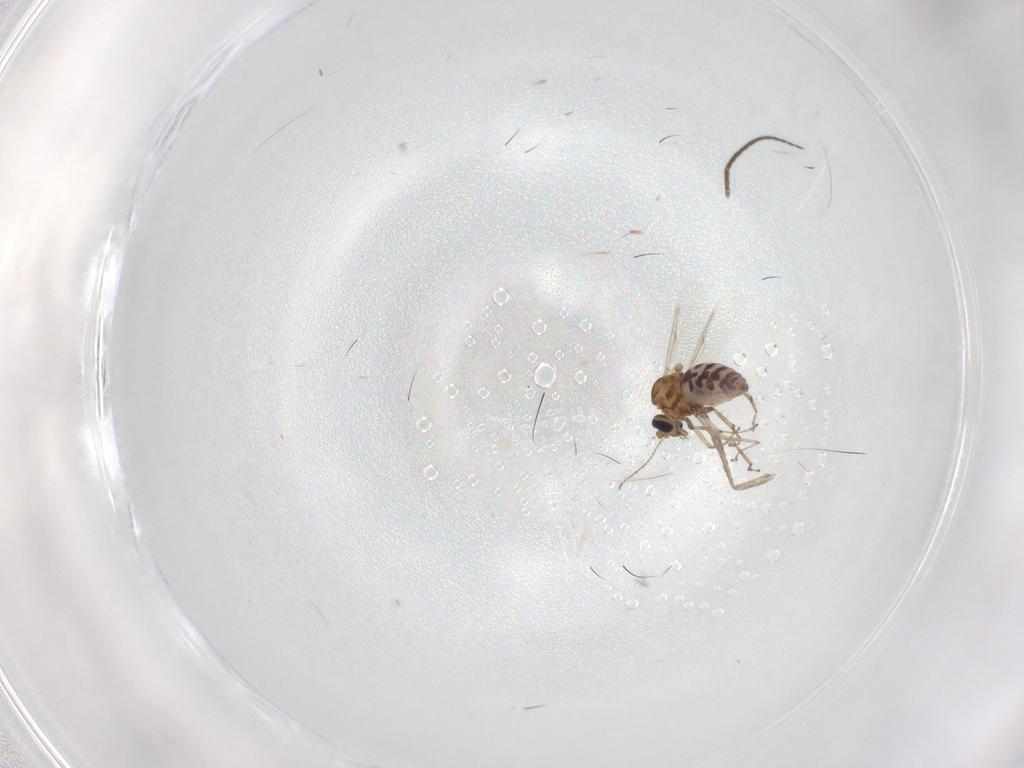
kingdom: Animalia
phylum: Arthropoda
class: Insecta
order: Diptera
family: Sciaridae
